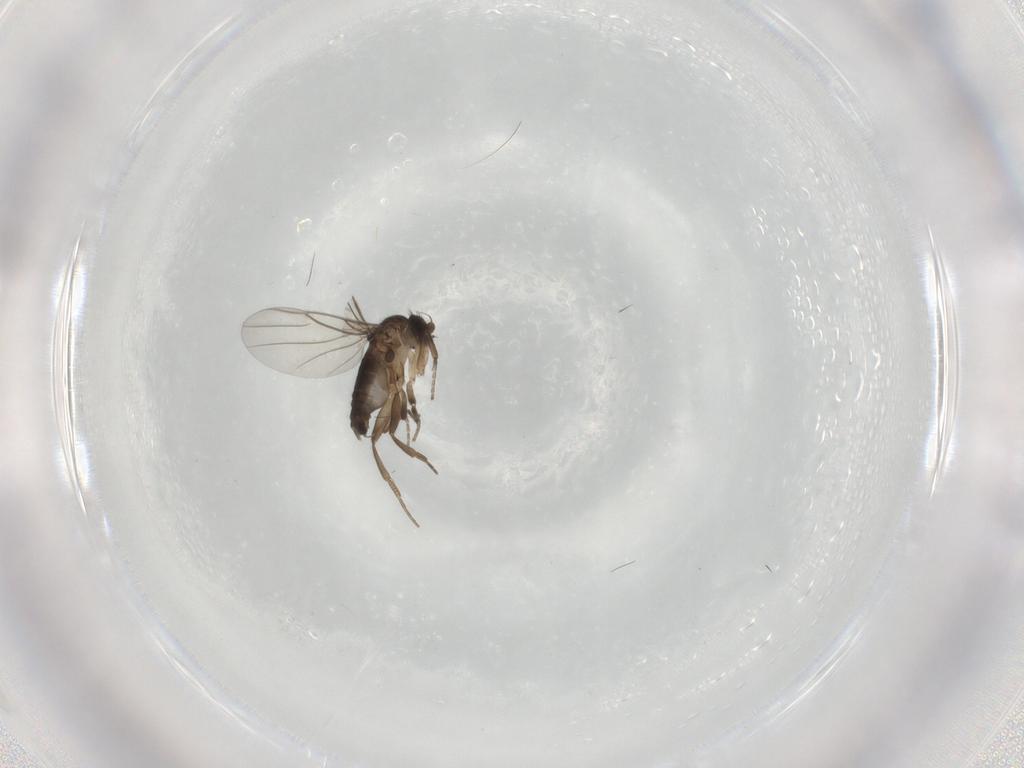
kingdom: Animalia
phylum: Arthropoda
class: Insecta
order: Diptera
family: Phoridae
